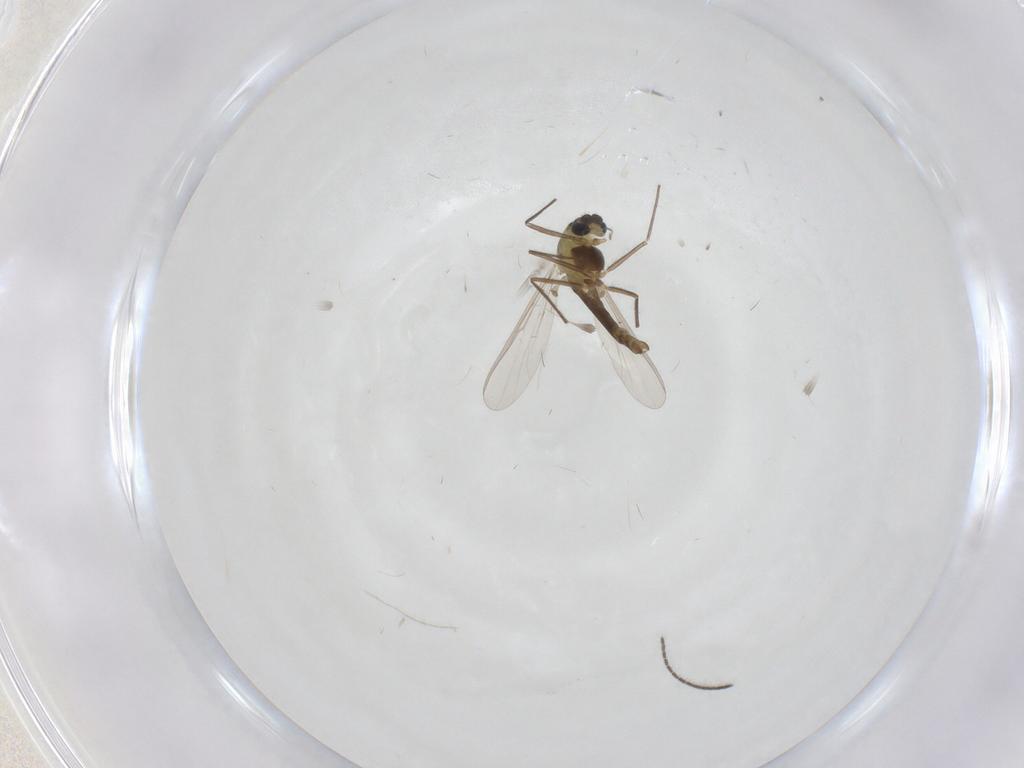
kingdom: Animalia
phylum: Arthropoda
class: Insecta
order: Diptera
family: Sciaridae
